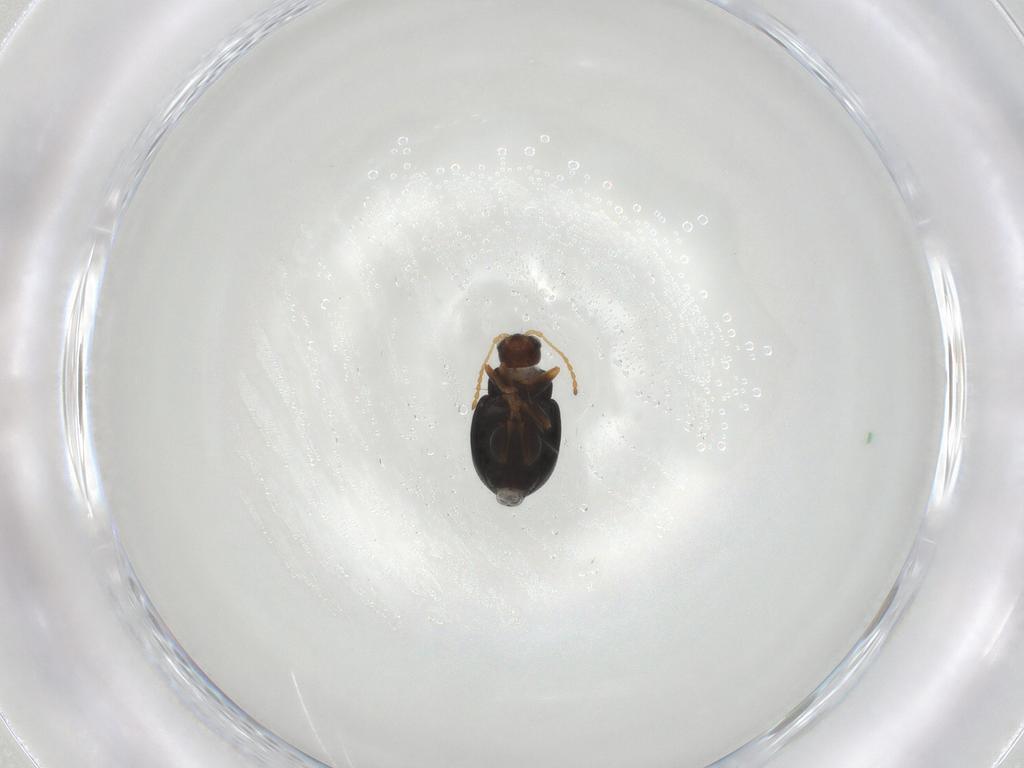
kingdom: Animalia
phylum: Arthropoda
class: Insecta
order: Coleoptera
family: Chrysomelidae
